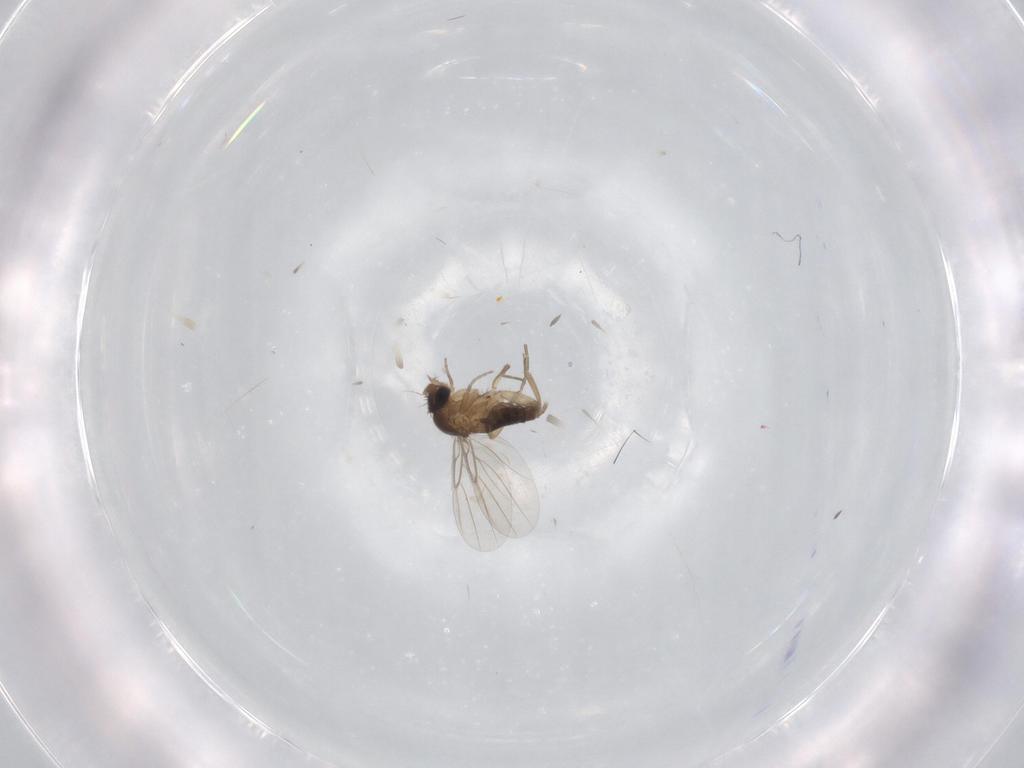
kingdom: Animalia
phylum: Arthropoda
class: Insecta
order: Diptera
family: Phoridae
